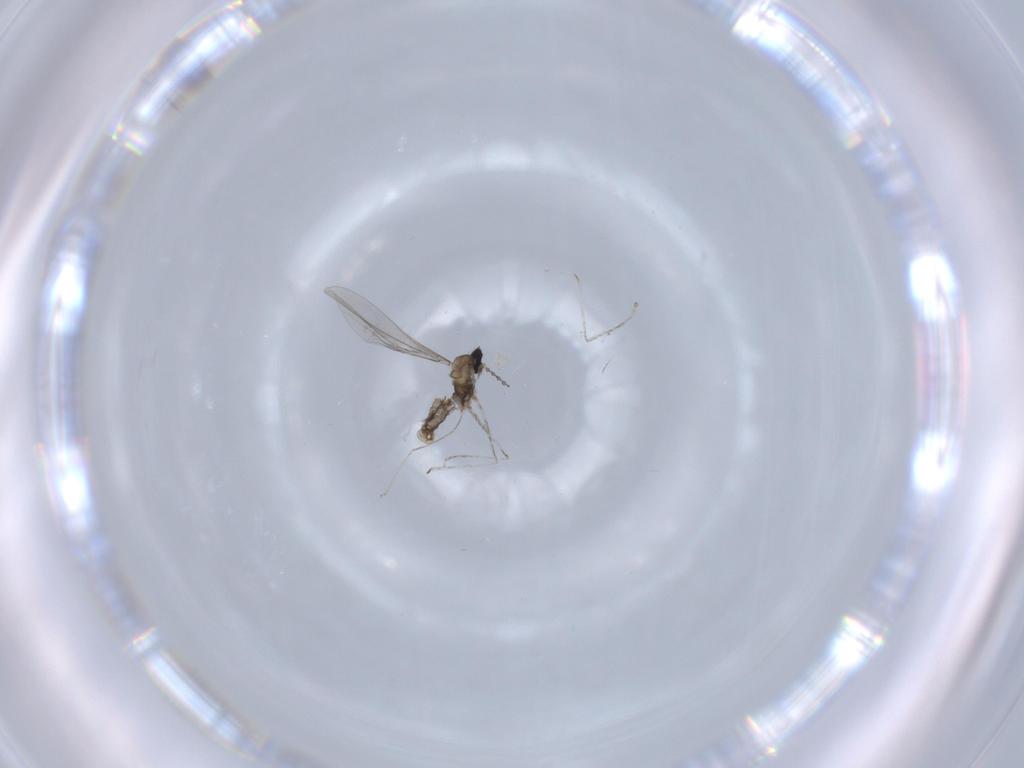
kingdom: Animalia
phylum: Arthropoda
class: Insecta
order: Diptera
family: Cecidomyiidae
